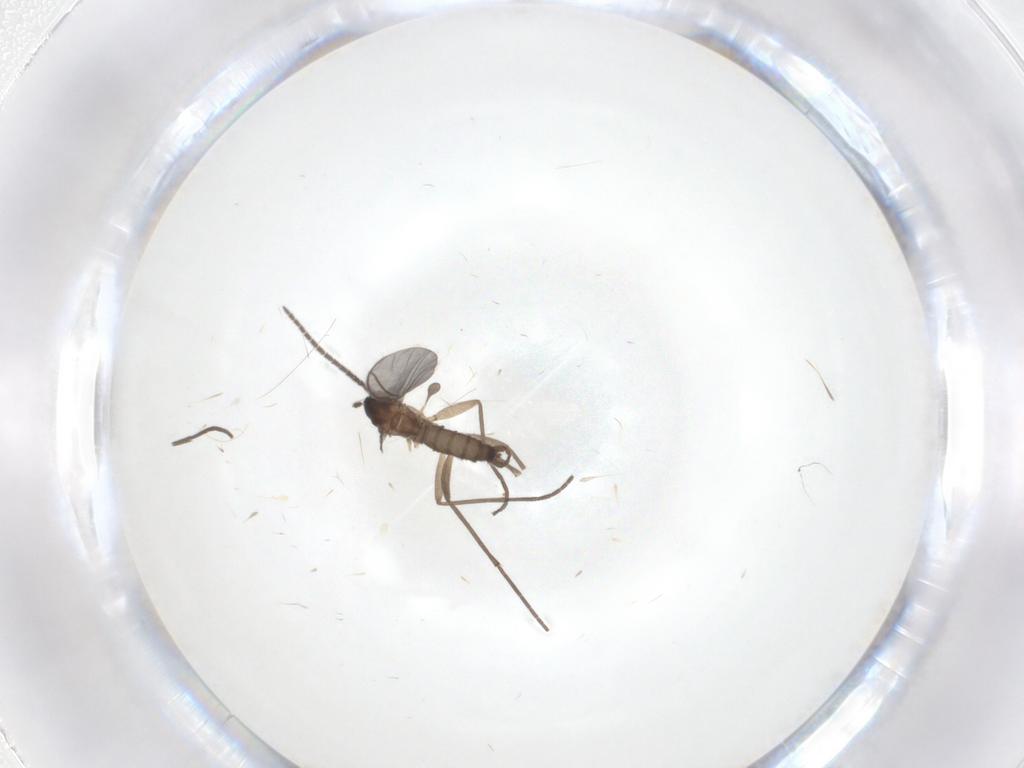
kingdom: Animalia
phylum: Arthropoda
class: Insecta
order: Diptera
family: Sciaridae
